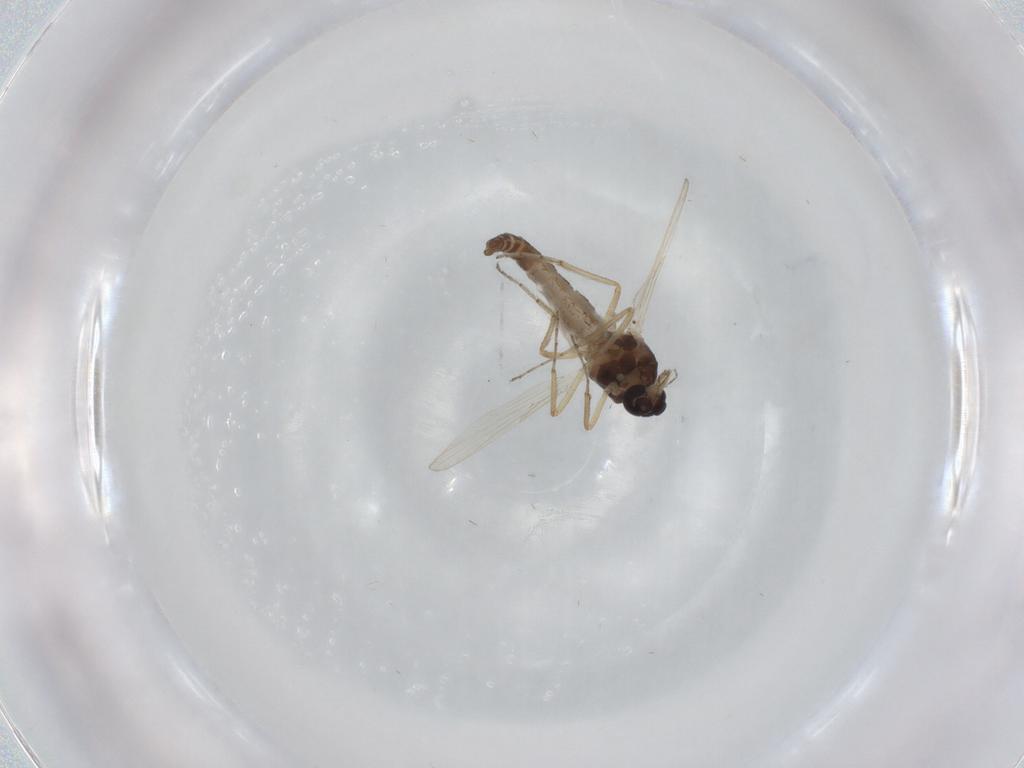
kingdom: Animalia
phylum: Arthropoda
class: Insecta
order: Diptera
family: Ceratopogonidae
